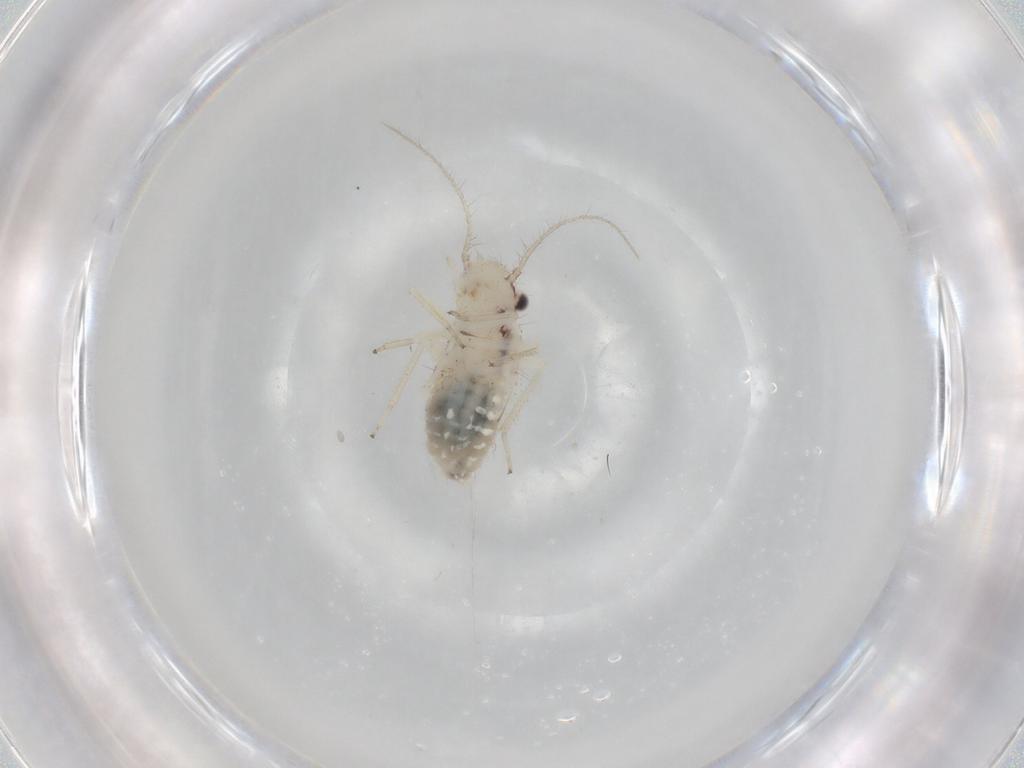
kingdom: Animalia
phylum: Arthropoda
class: Insecta
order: Psocodea
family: Pseudocaeciliidae
